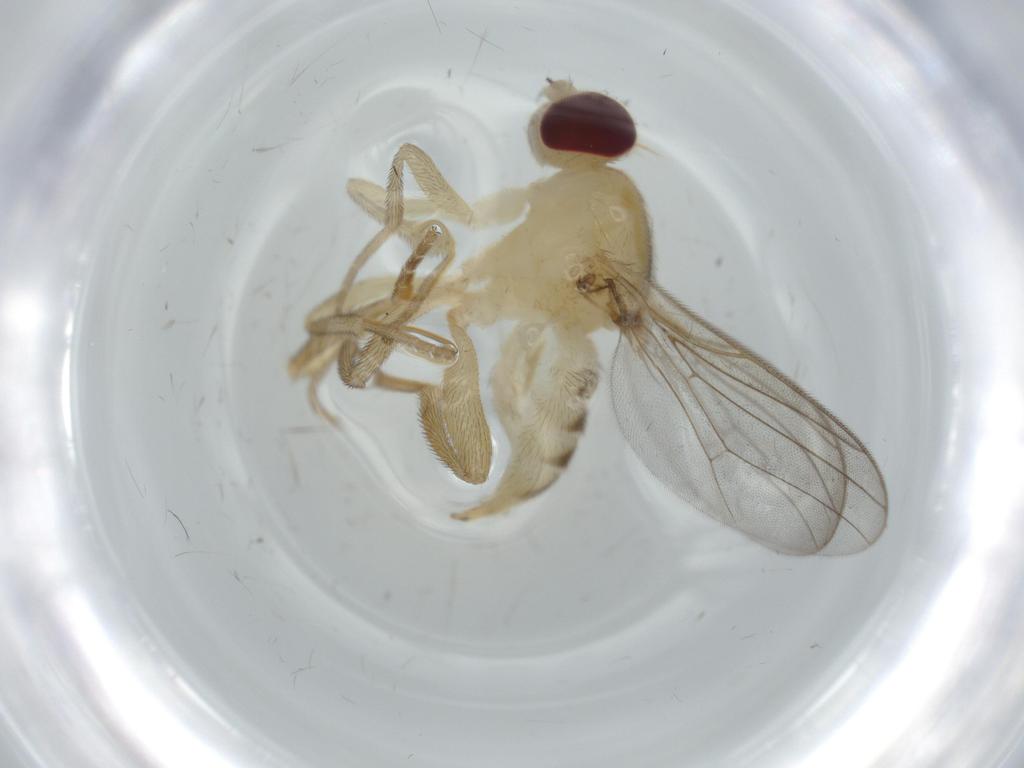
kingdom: Animalia
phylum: Arthropoda
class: Insecta
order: Diptera
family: Phoridae
